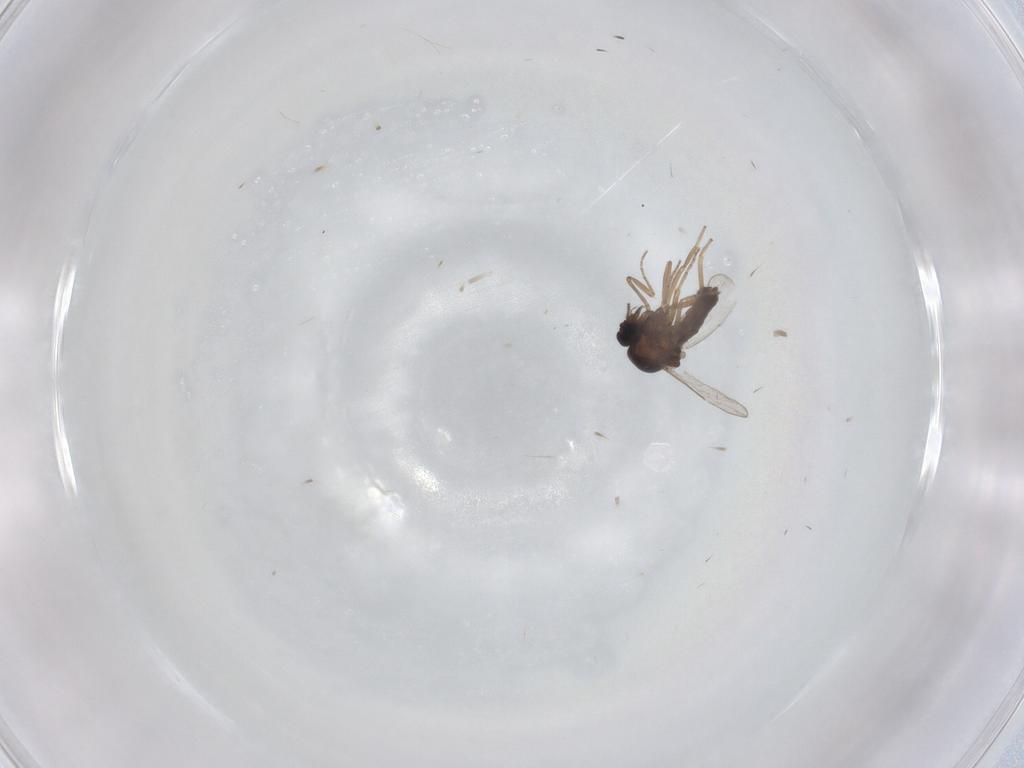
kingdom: Animalia
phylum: Arthropoda
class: Insecta
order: Diptera
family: Ceratopogonidae
